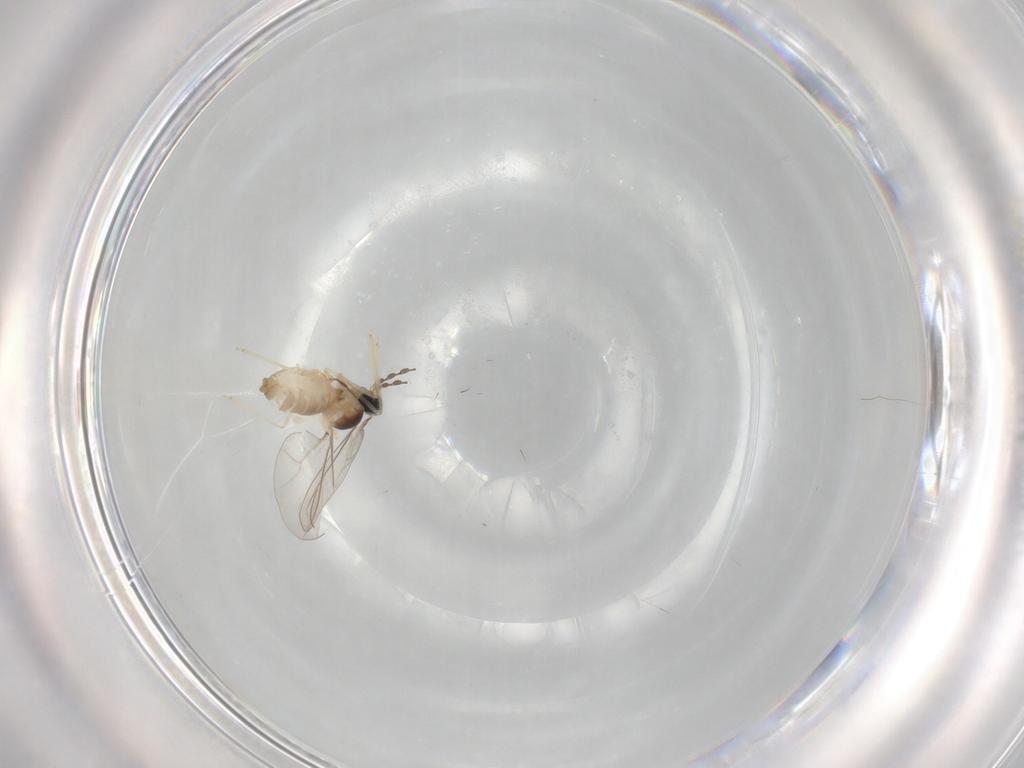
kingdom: Animalia
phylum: Arthropoda
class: Insecta
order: Diptera
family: Cecidomyiidae
